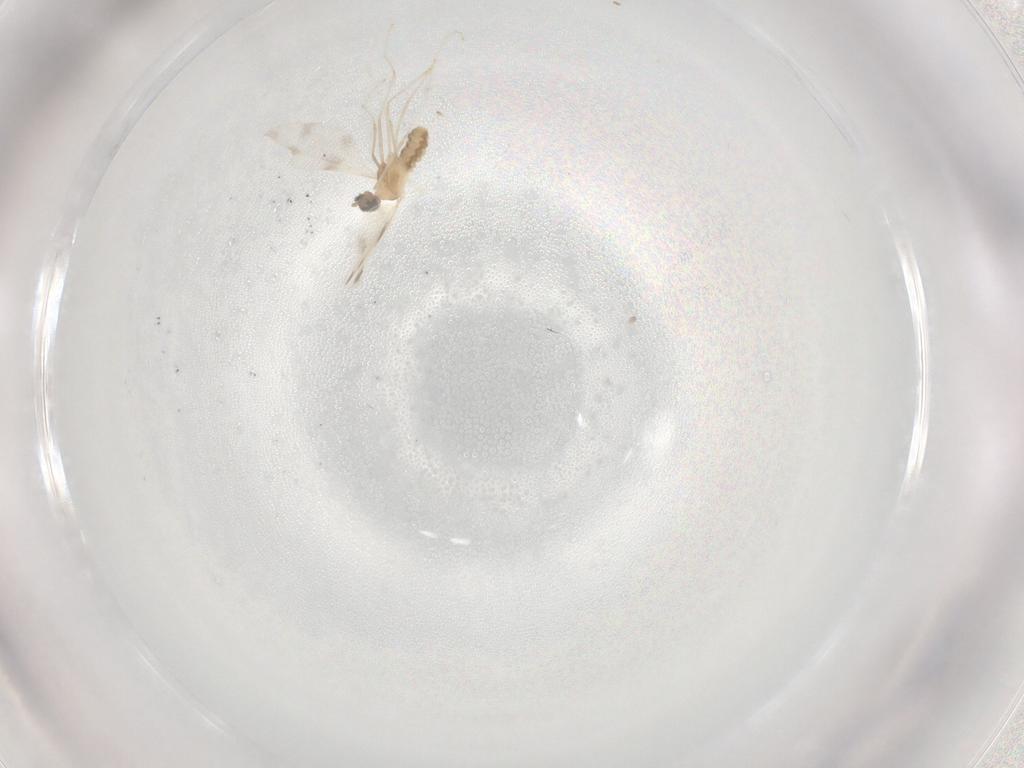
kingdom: Animalia
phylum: Arthropoda
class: Insecta
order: Diptera
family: Cecidomyiidae
